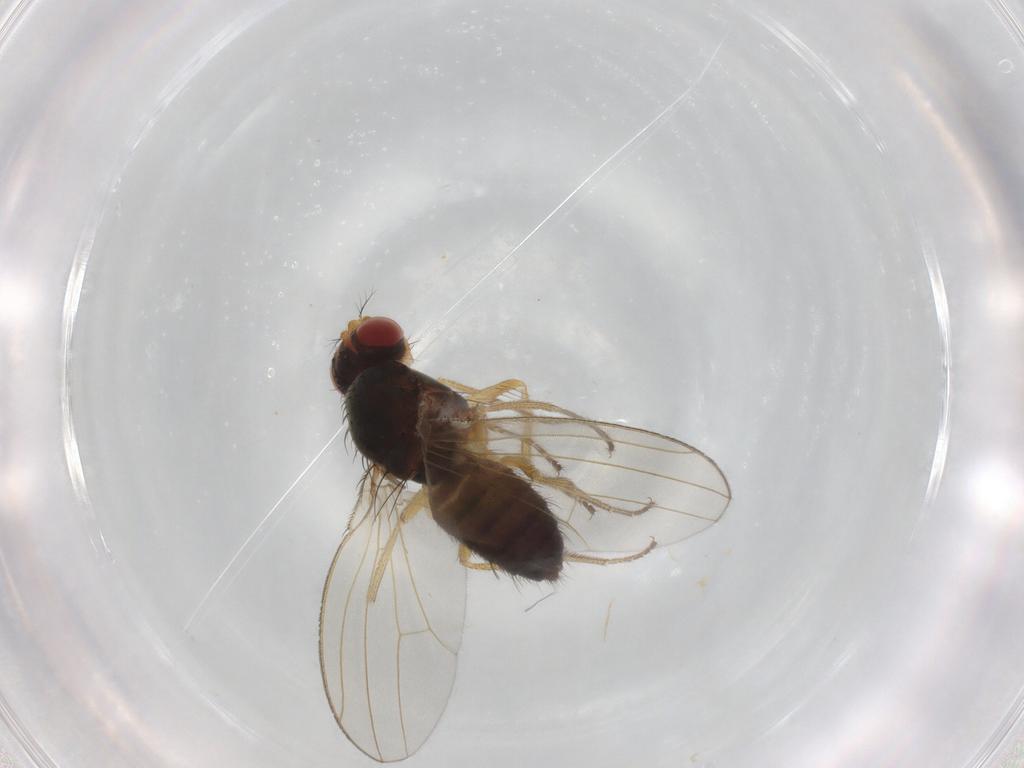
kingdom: Animalia
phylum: Arthropoda
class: Insecta
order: Diptera
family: Drosophilidae
